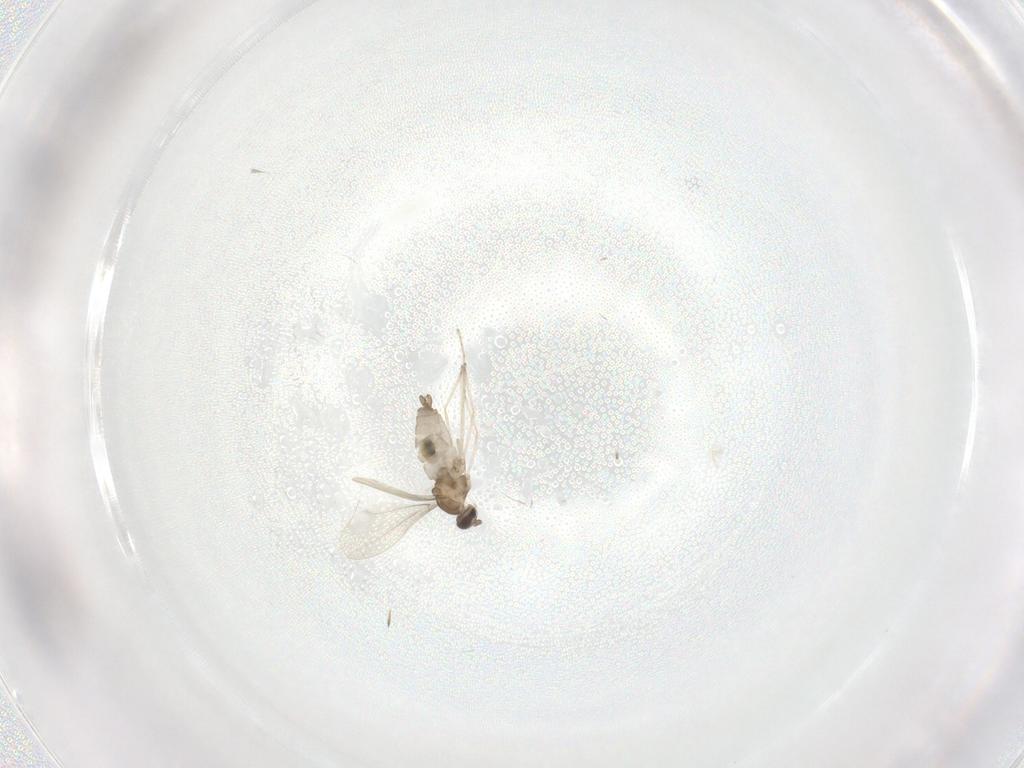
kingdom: Animalia
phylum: Arthropoda
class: Insecta
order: Diptera
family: Cecidomyiidae
